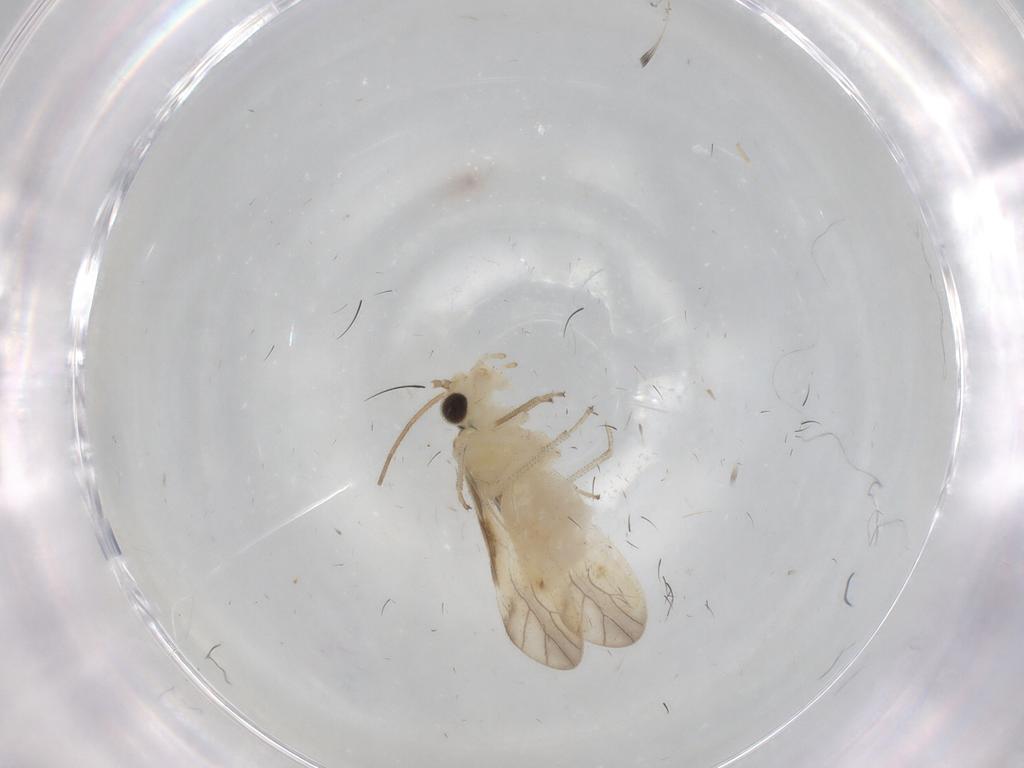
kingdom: Animalia
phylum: Arthropoda
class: Insecta
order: Psocodea
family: Caeciliusidae
